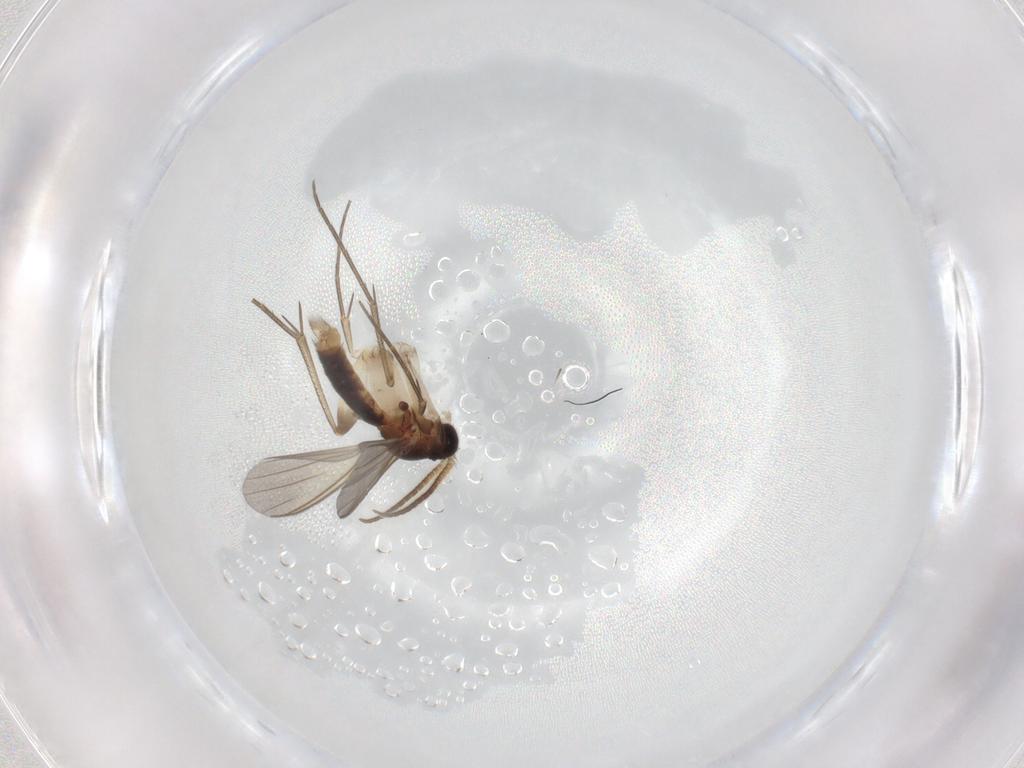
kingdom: Animalia
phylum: Arthropoda
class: Insecta
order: Diptera
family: Mycetophilidae
